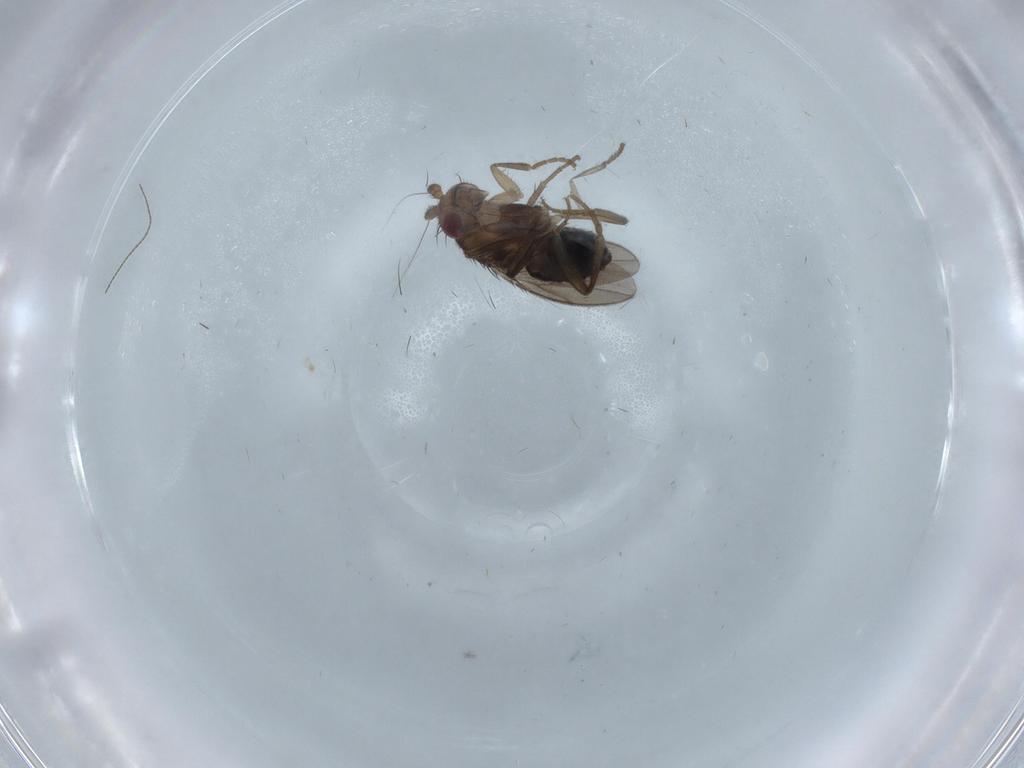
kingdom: Animalia
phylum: Arthropoda
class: Insecta
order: Diptera
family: Sphaeroceridae
